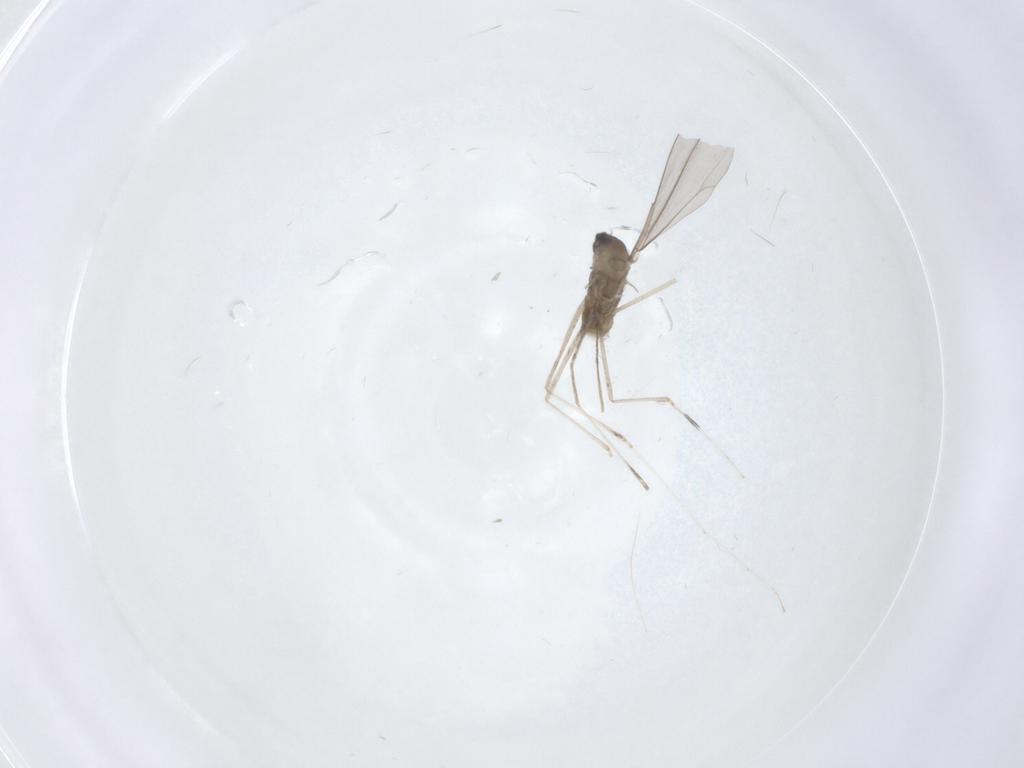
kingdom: Animalia
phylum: Arthropoda
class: Insecta
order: Diptera
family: Cecidomyiidae
